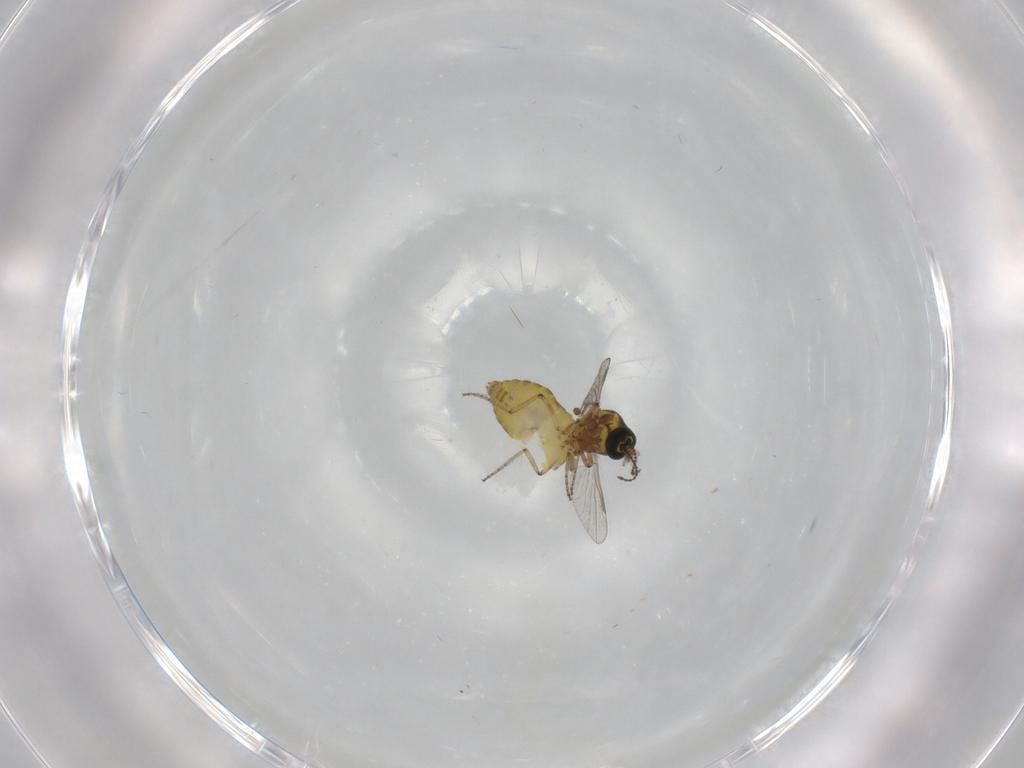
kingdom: Animalia
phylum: Arthropoda
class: Insecta
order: Diptera
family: Ceratopogonidae
